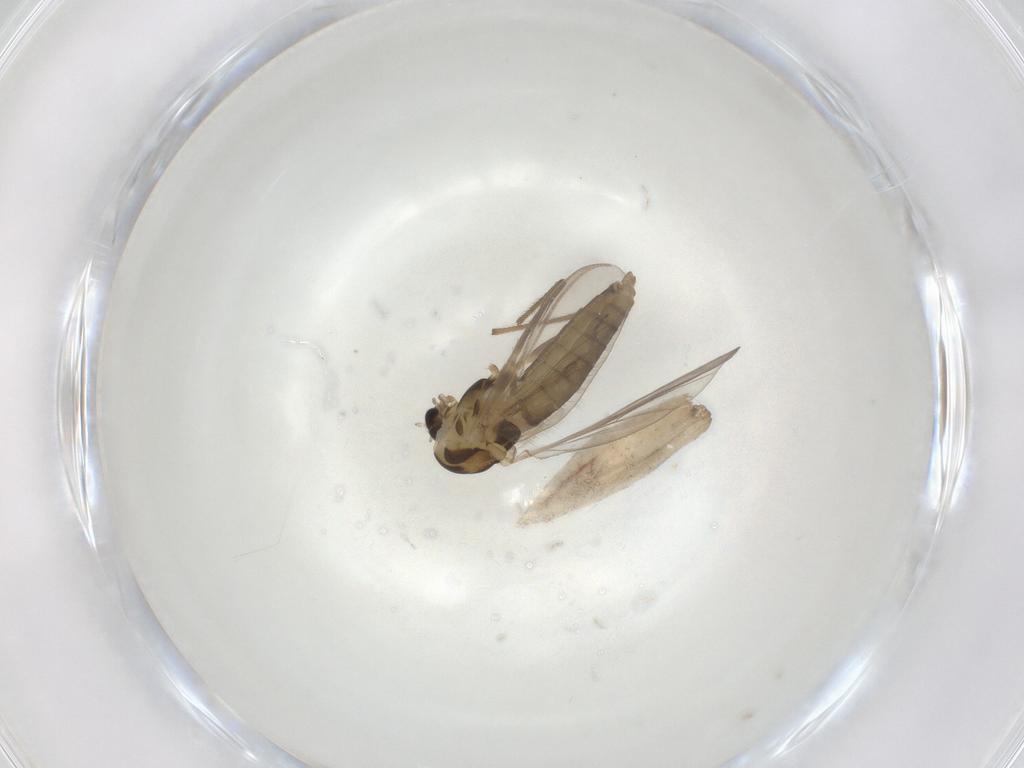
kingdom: Animalia
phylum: Arthropoda
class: Insecta
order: Diptera
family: Chironomidae
